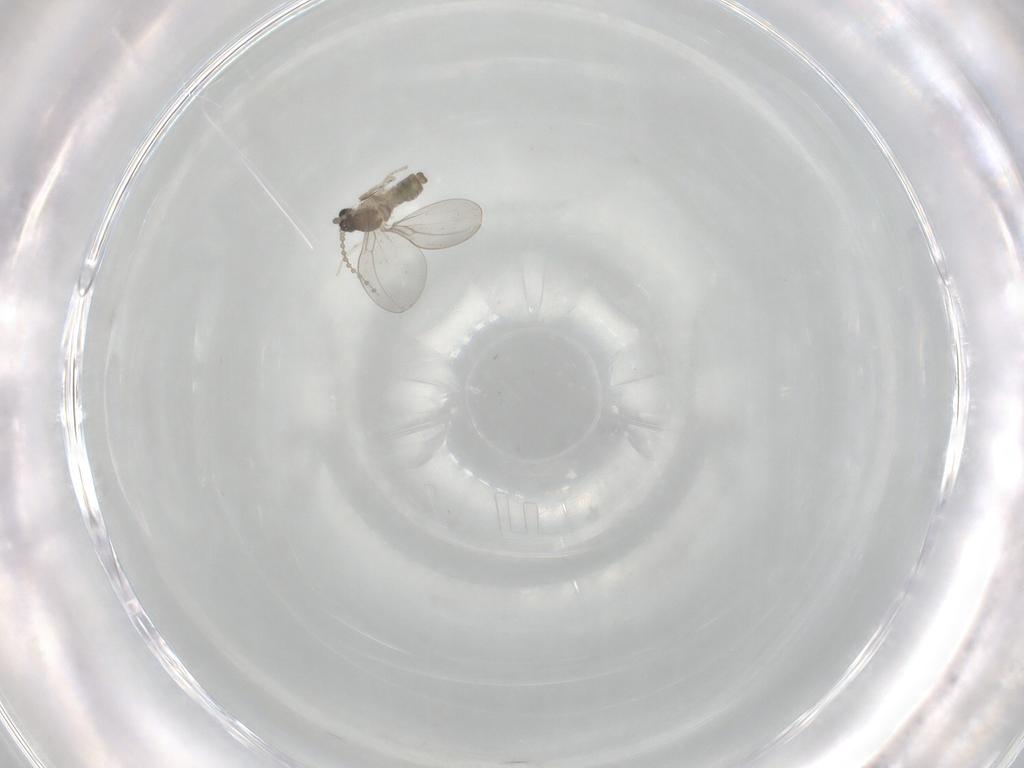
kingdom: Animalia
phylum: Arthropoda
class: Insecta
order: Diptera
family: Cecidomyiidae
